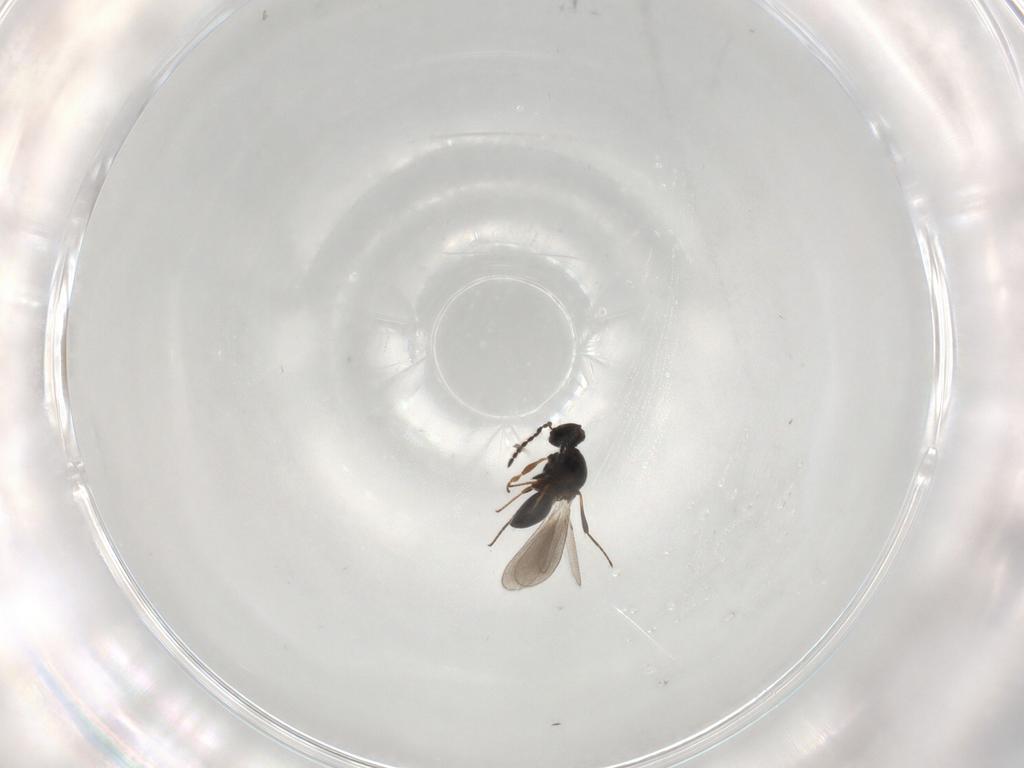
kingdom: Animalia
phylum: Arthropoda
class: Insecta
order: Hymenoptera
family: Platygastridae
